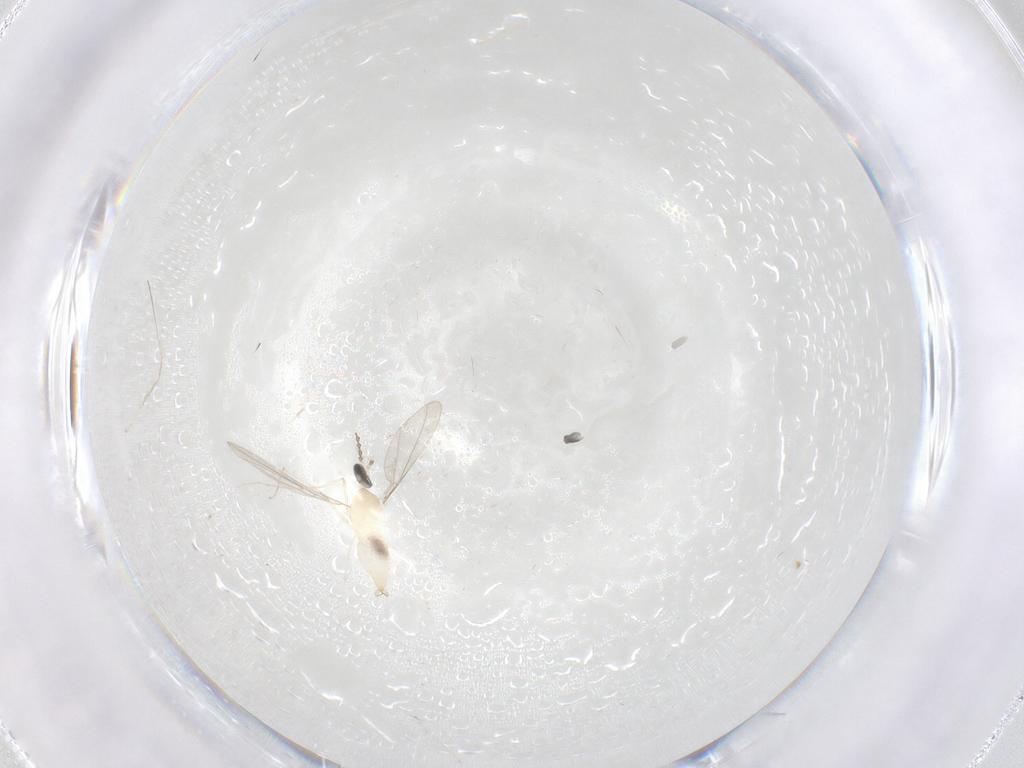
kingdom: Animalia
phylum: Arthropoda
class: Insecta
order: Diptera
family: Cecidomyiidae
